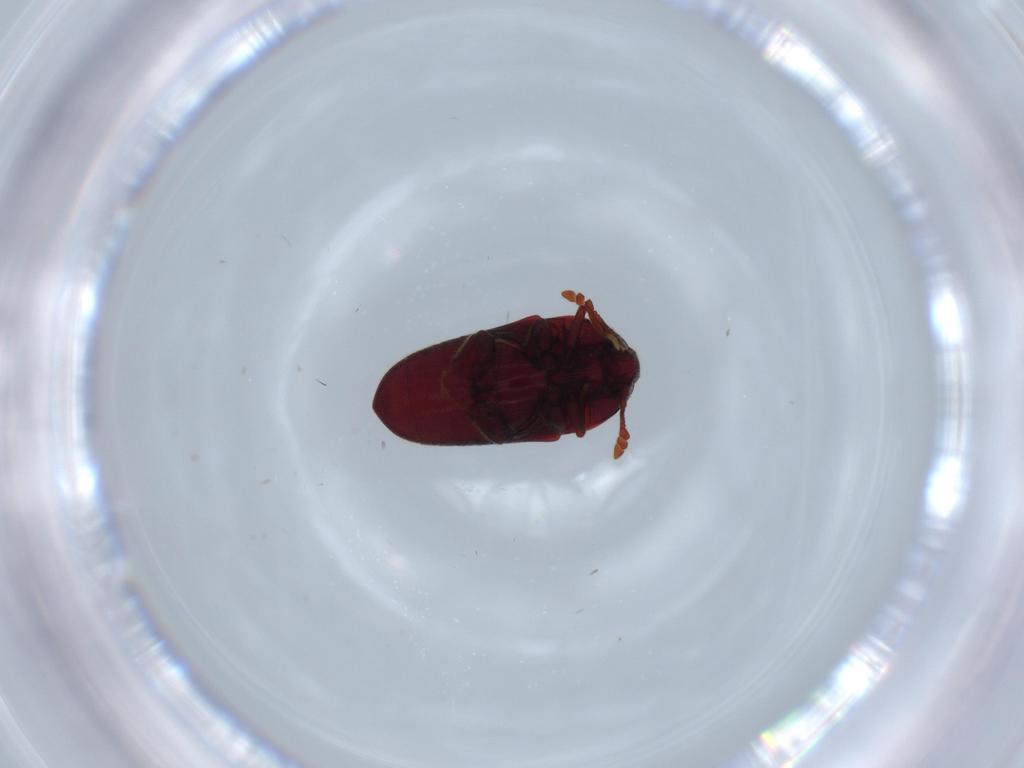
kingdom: Animalia
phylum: Arthropoda
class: Insecta
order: Coleoptera
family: Throscidae
